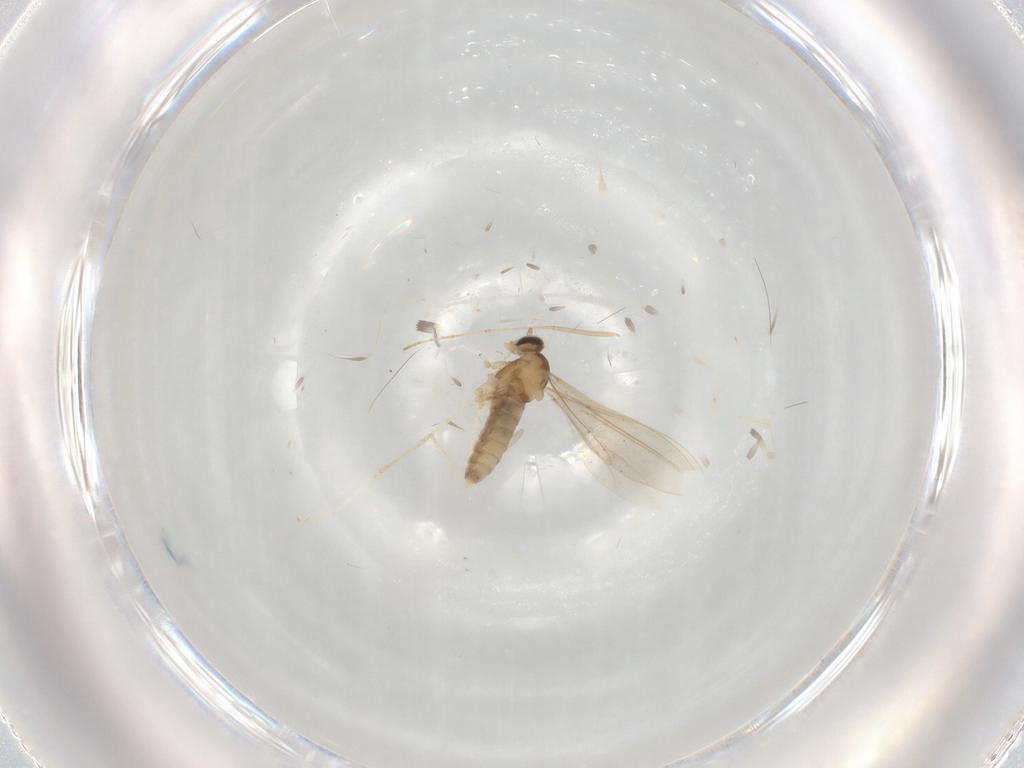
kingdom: Animalia
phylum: Arthropoda
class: Insecta
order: Diptera
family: Cecidomyiidae
